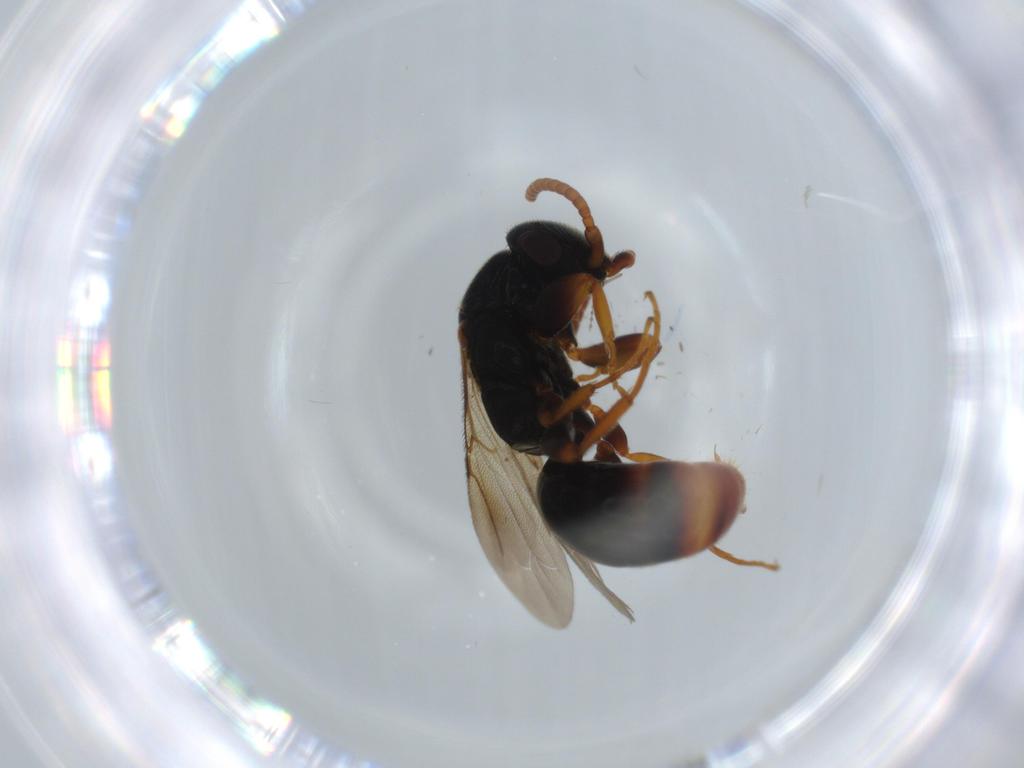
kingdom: Animalia
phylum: Arthropoda
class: Insecta
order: Hymenoptera
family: Bethylidae
